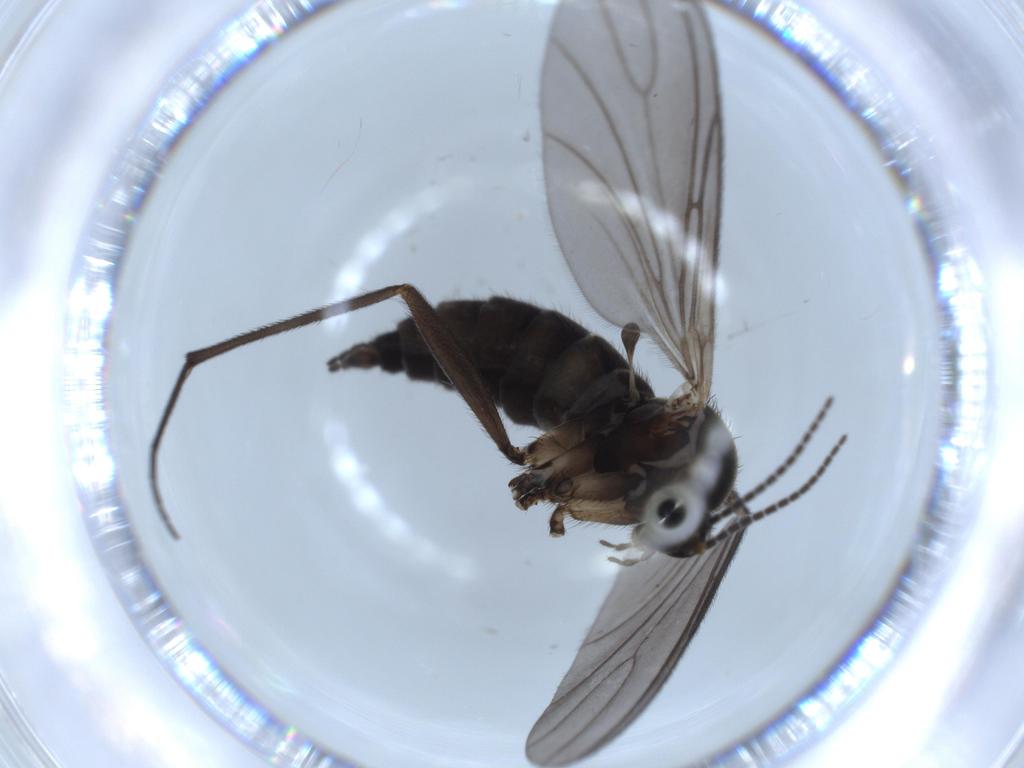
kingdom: Animalia
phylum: Arthropoda
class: Insecta
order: Diptera
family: Sciaridae
